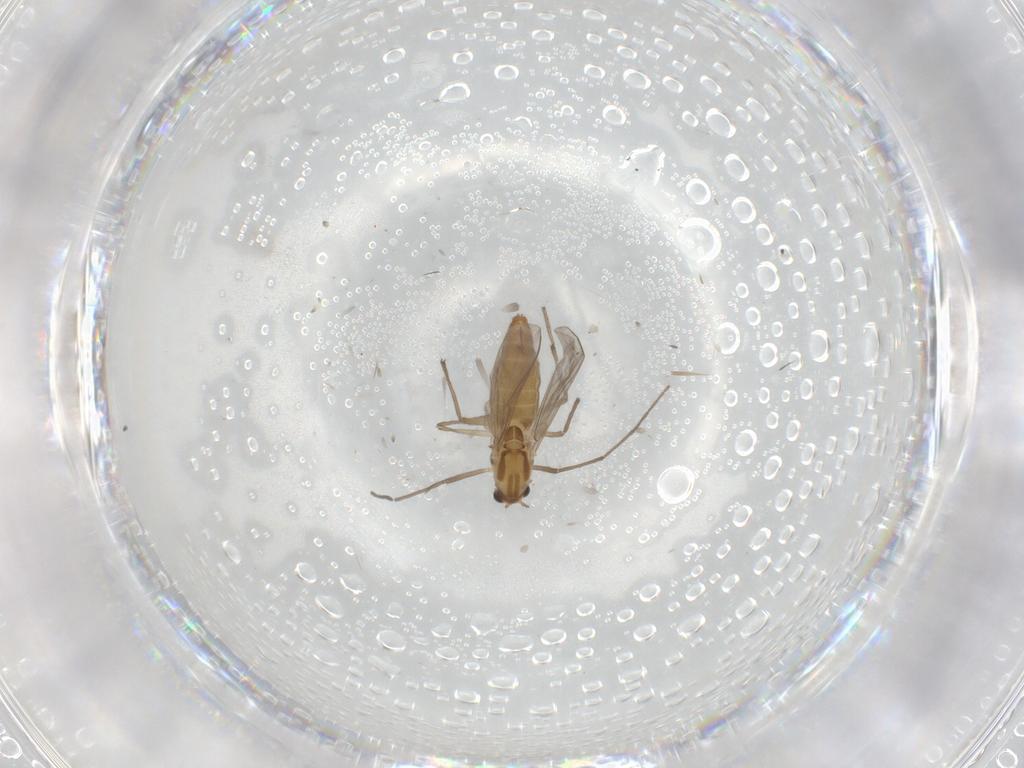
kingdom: Animalia
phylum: Arthropoda
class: Insecta
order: Diptera
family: Chironomidae
